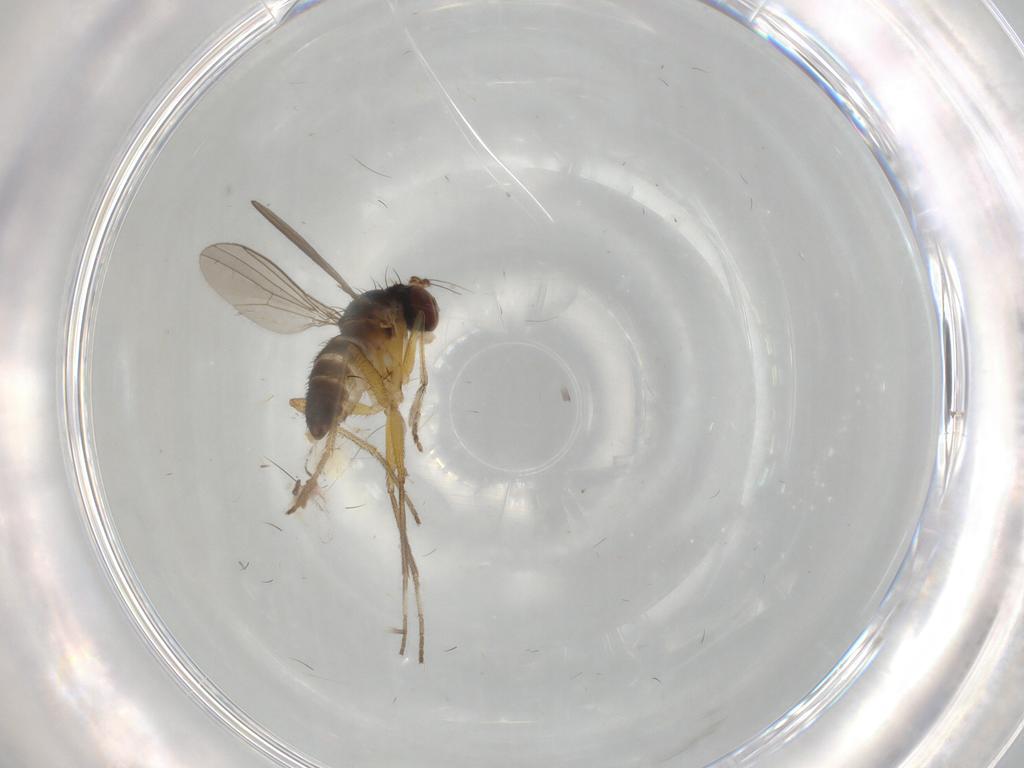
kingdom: Animalia
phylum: Arthropoda
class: Insecta
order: Diptera
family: Dolichopodidae
